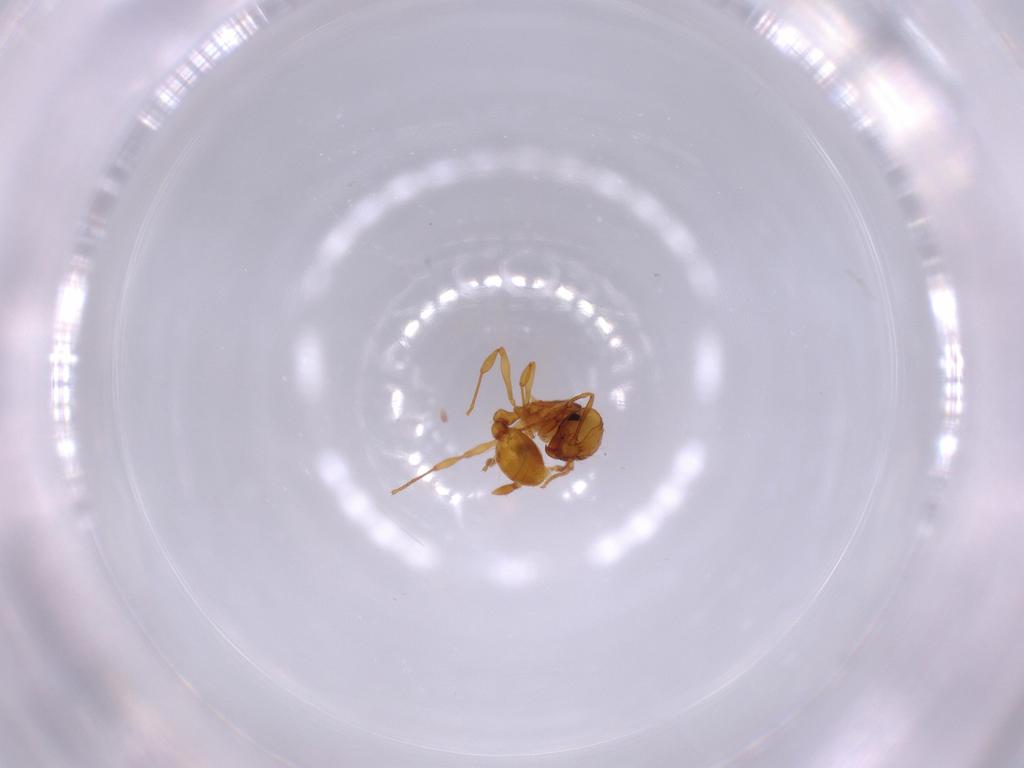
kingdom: Animalia
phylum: Arthropoda
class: Insecta
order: Hymenoptera
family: Formicidae
